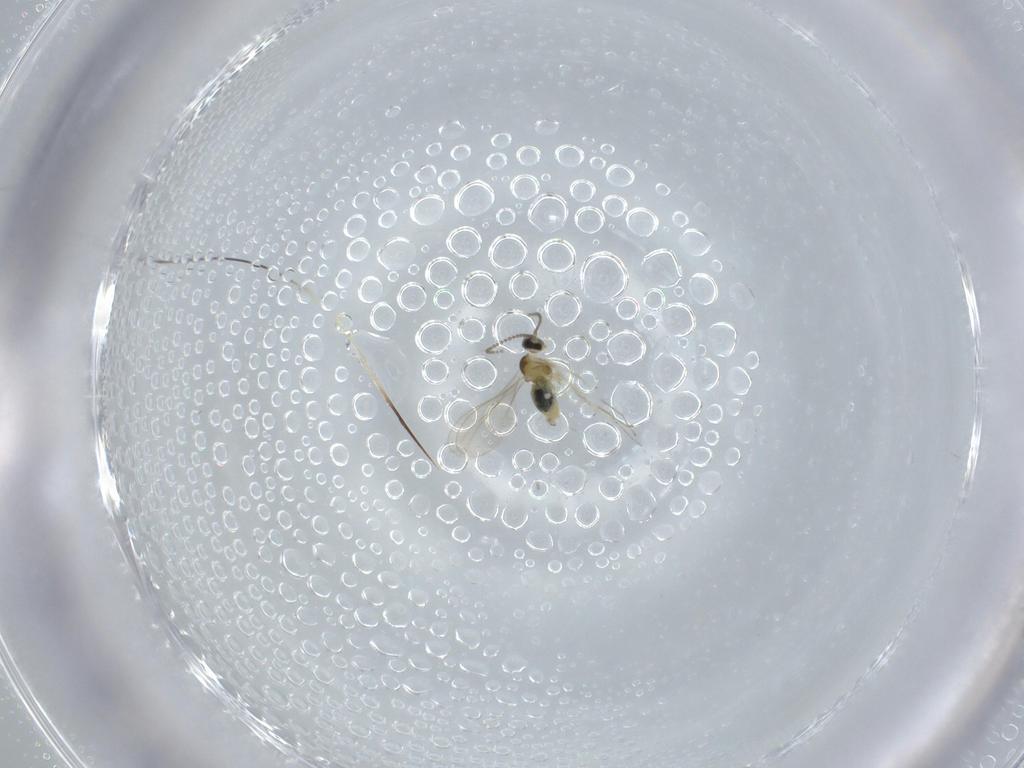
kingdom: Animalia
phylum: Arthropoda
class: Insecta
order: Diptera
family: Cecidomyiidae
